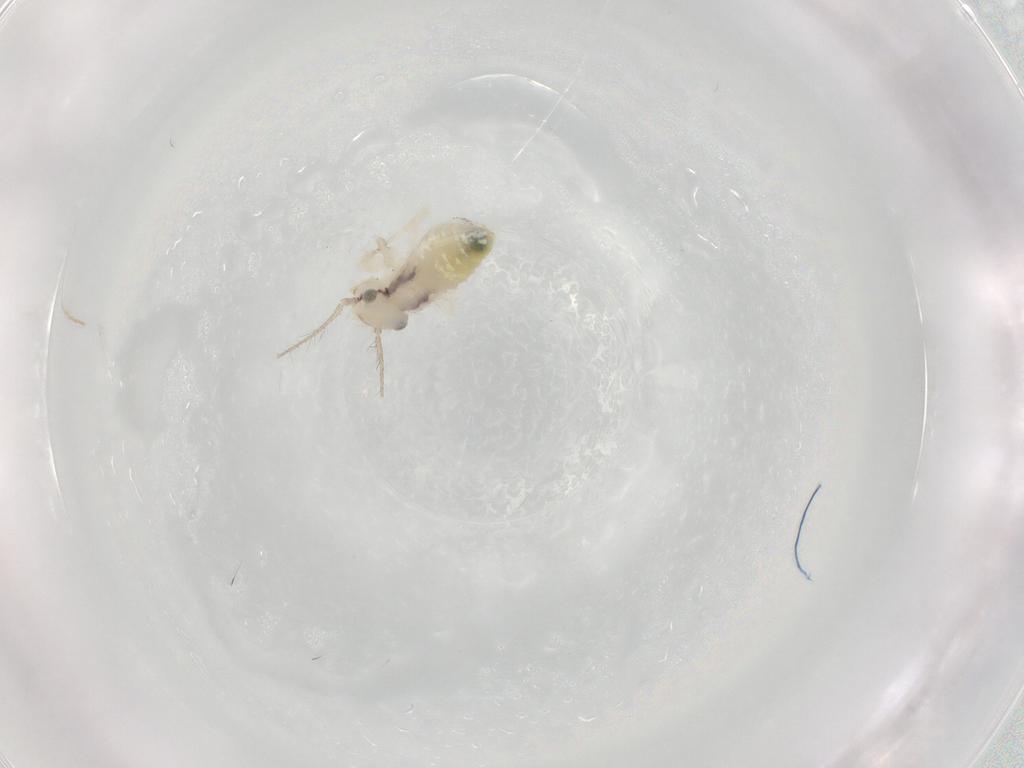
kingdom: Animalia
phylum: Arthropoda
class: Insecta
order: Psocodea
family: Pseudocaeciliidae
